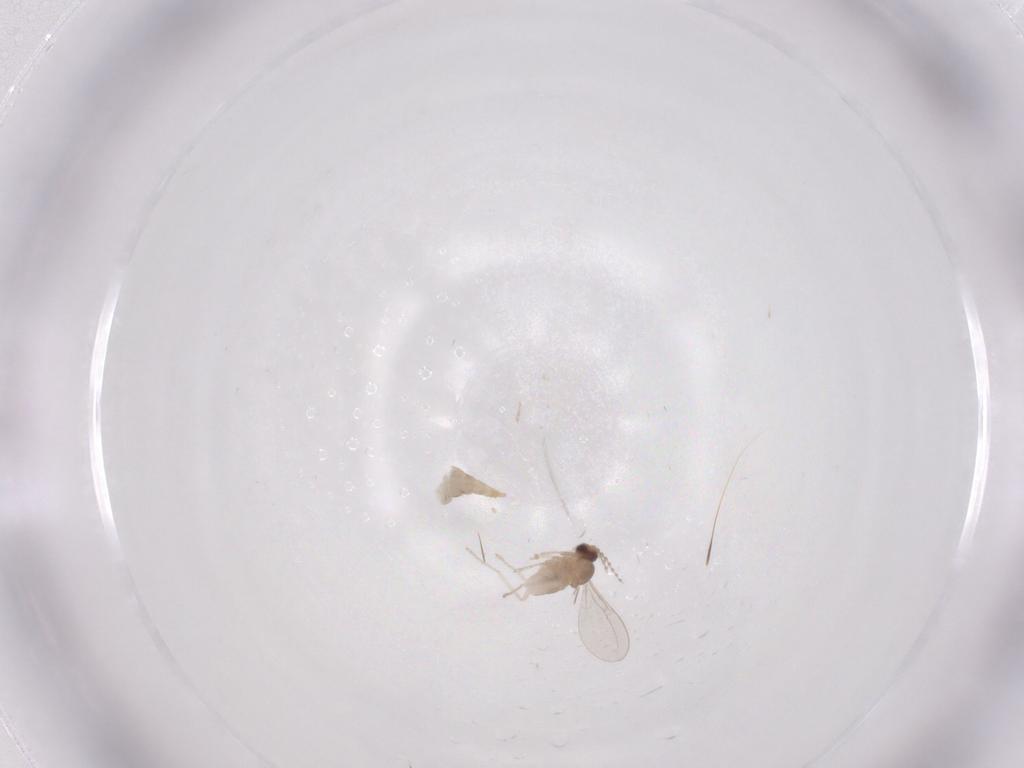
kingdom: Animalia
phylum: Arthropoda
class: Insecta
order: Diptera
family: Cecidomyiidae
